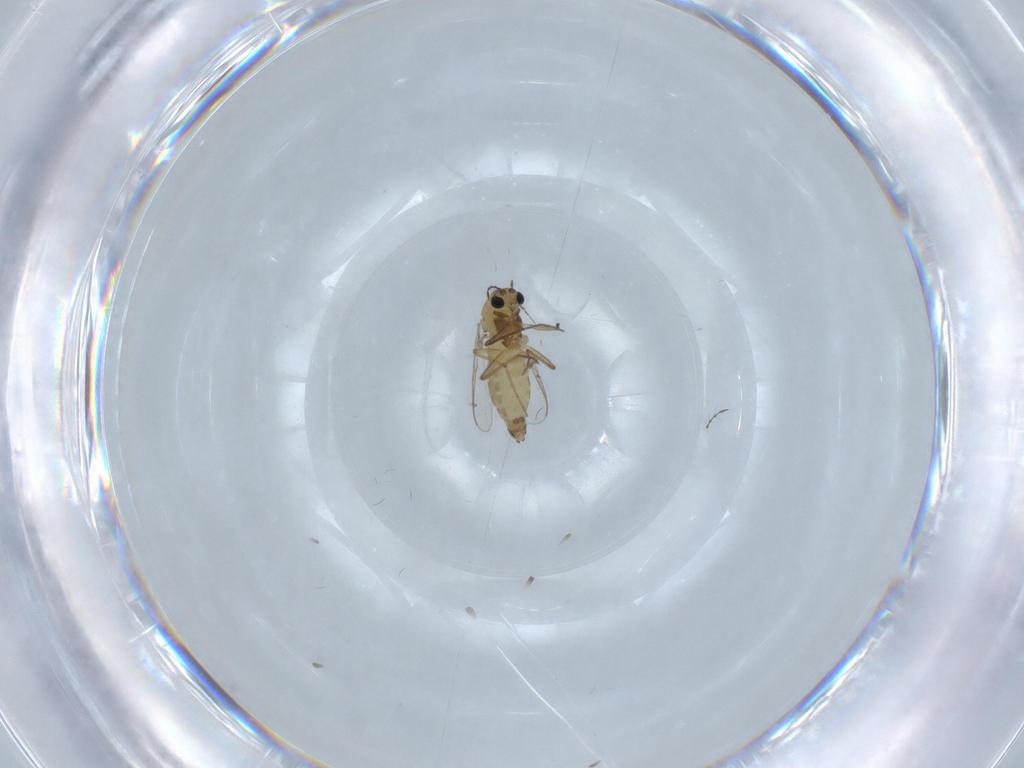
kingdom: Animalia
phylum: Arthropoda
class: Insecta
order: Diptera
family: Chironomidae
